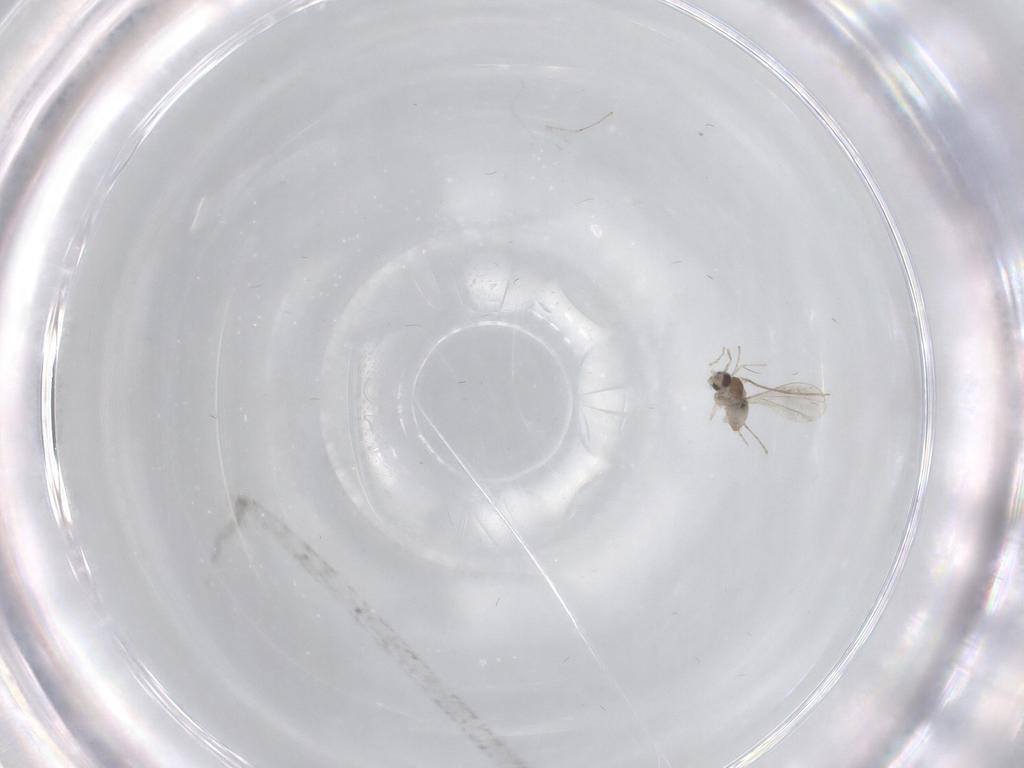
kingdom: Animalia
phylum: Arthropoda
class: Insecta
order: Diptera
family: Cecidomyiidae
